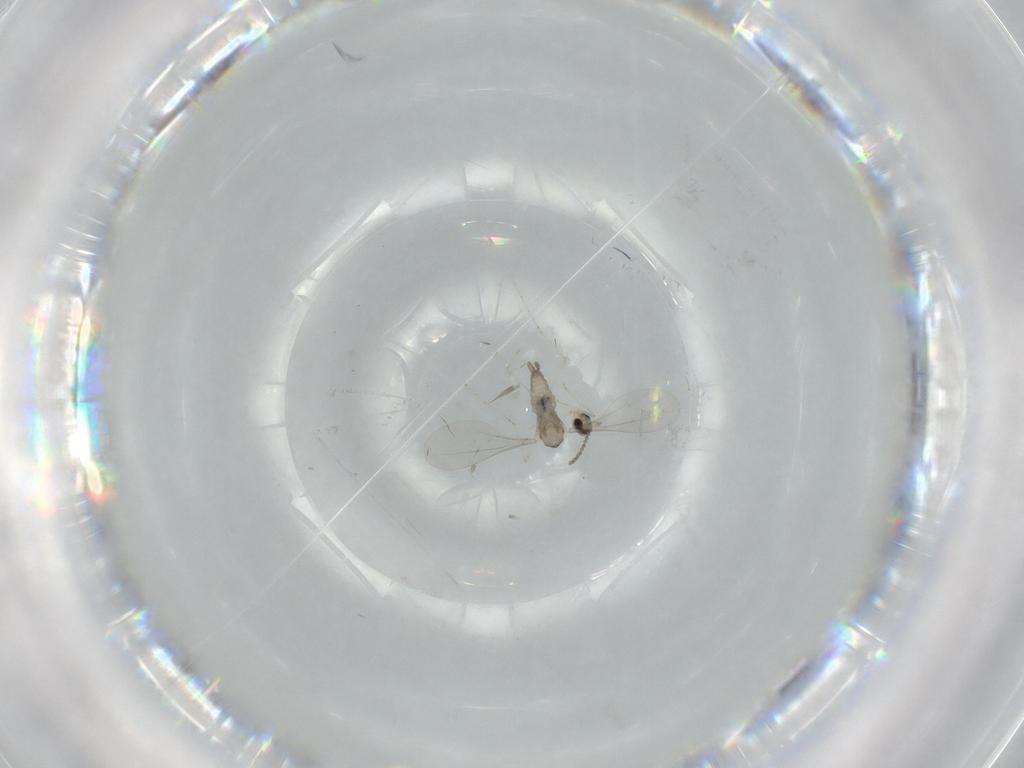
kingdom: Animalia
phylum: Arthropoda
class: Insecta
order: Diptera
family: Cecidomyiidae
